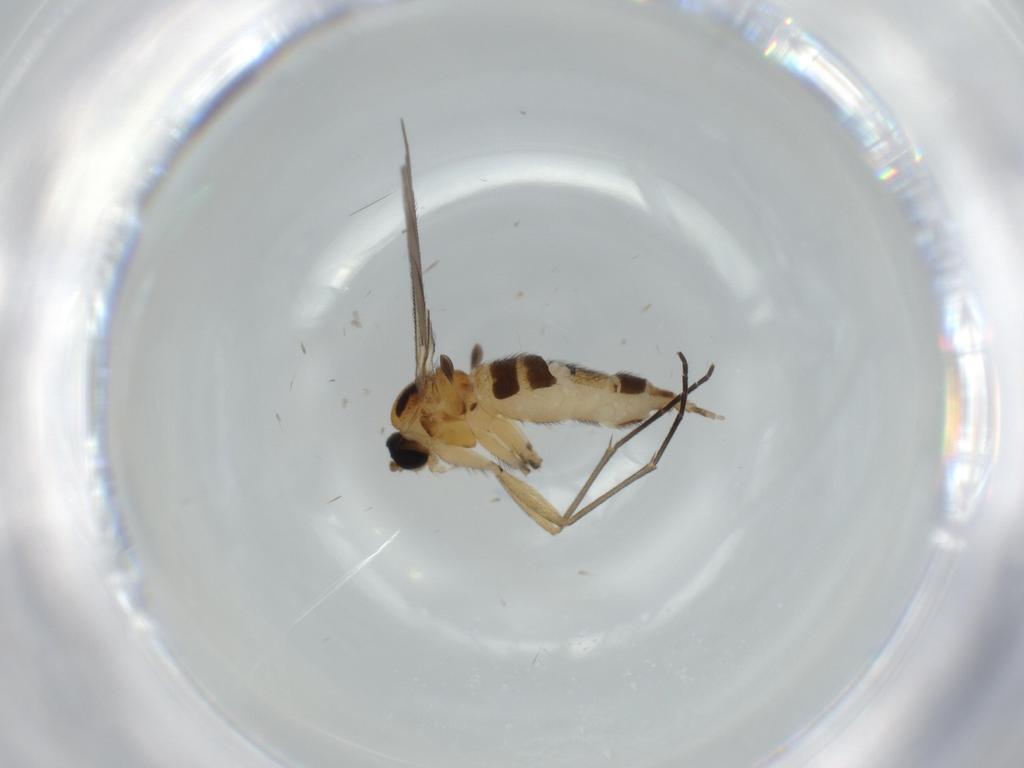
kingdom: Animalia
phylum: Arthropoda
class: Insecta
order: Diptera
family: Sciaridae
